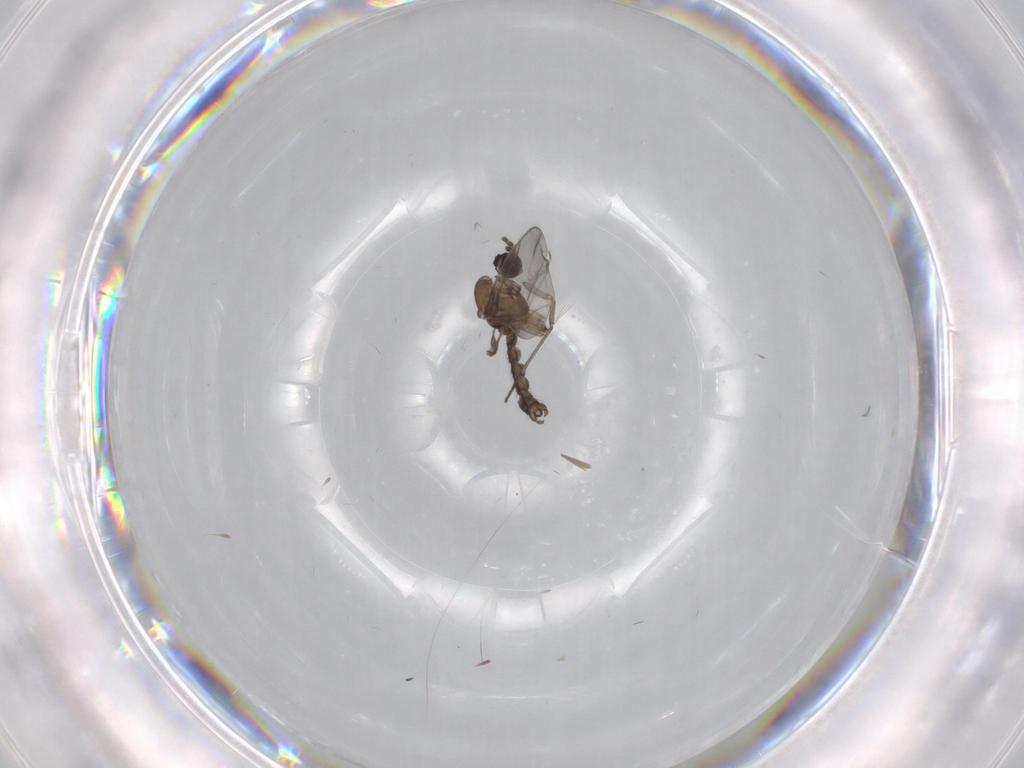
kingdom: Animalia
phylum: Arthropoda
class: Insecta
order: Diptera
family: Sciaridae
